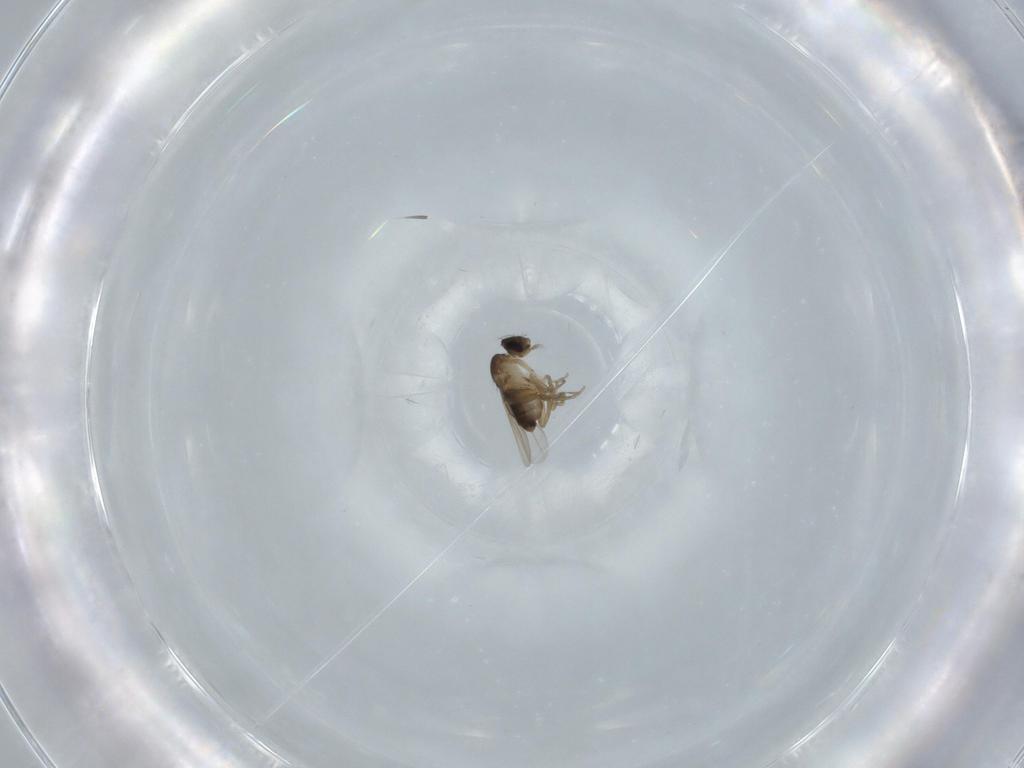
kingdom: Animalia
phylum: Arthropoda
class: Insecta
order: Diptera
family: Phoridae
